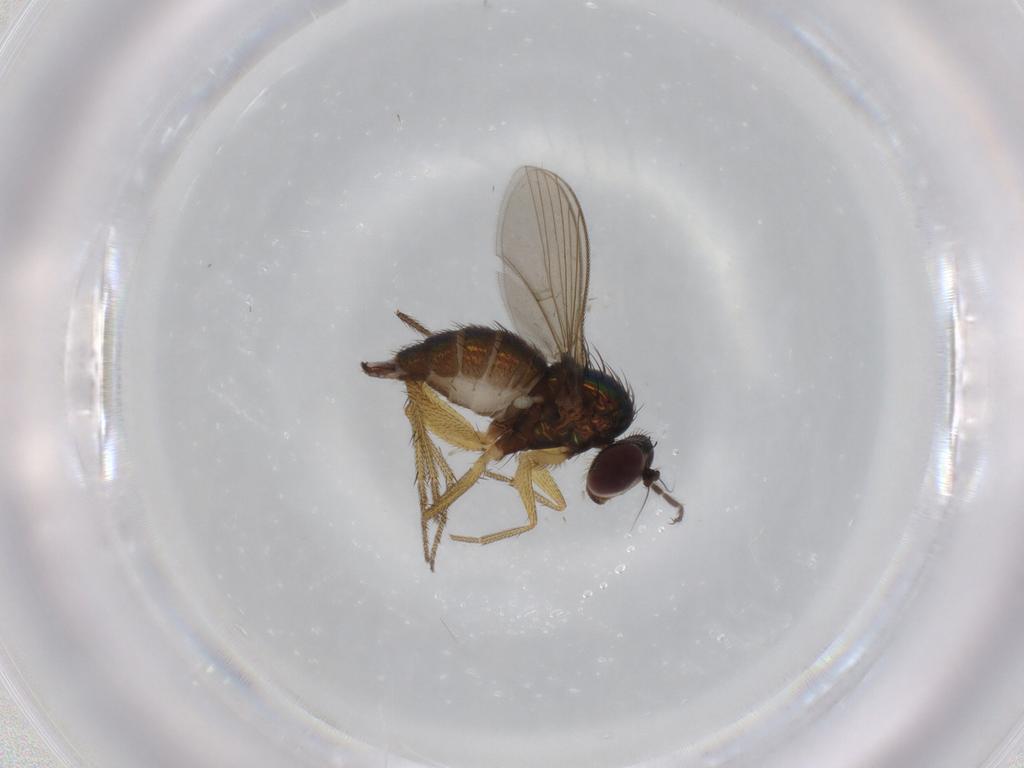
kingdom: Animalia
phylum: Arthropoda
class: Insecta
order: Diptera
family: Dolichopodidae
